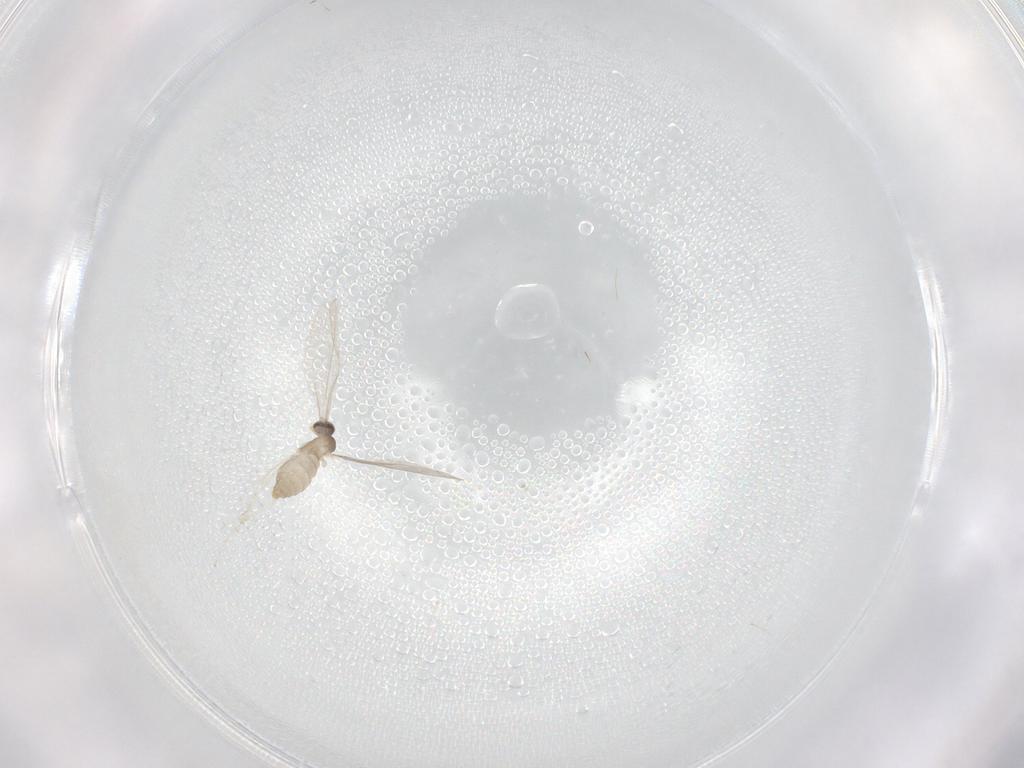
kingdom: Animalia
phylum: Arthropoda
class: Insecta
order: Diptera
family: Cecidomyiidae
